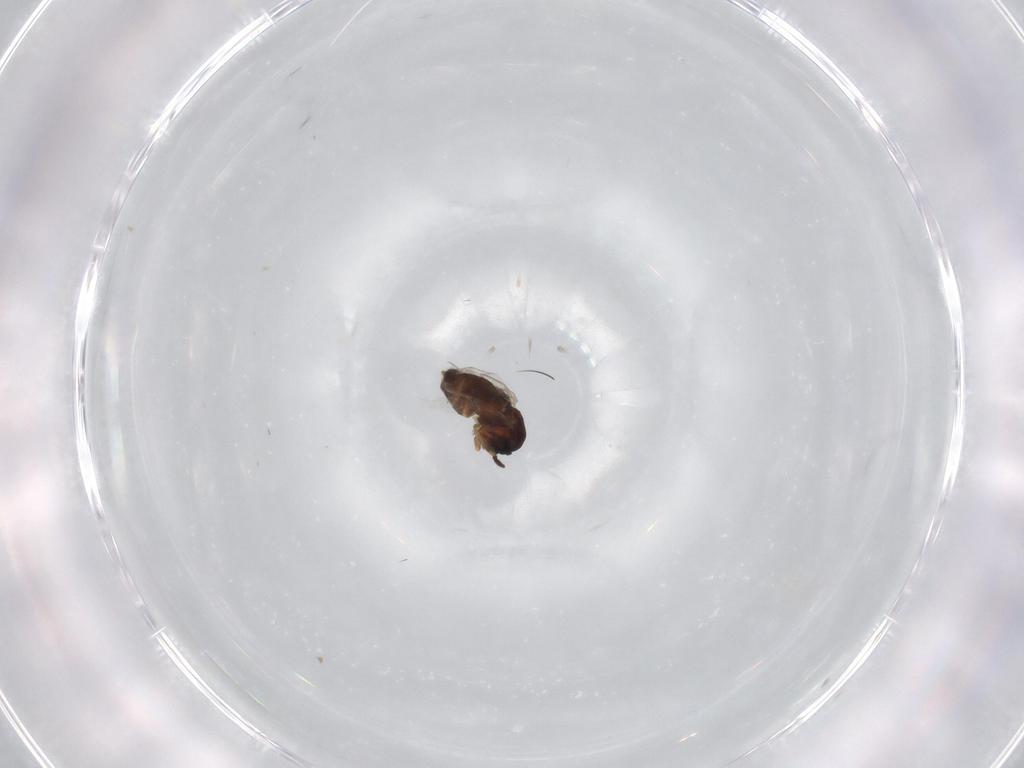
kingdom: Animalia
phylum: Arthropoda
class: Insecta
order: Diptera
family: Scatopsidae
